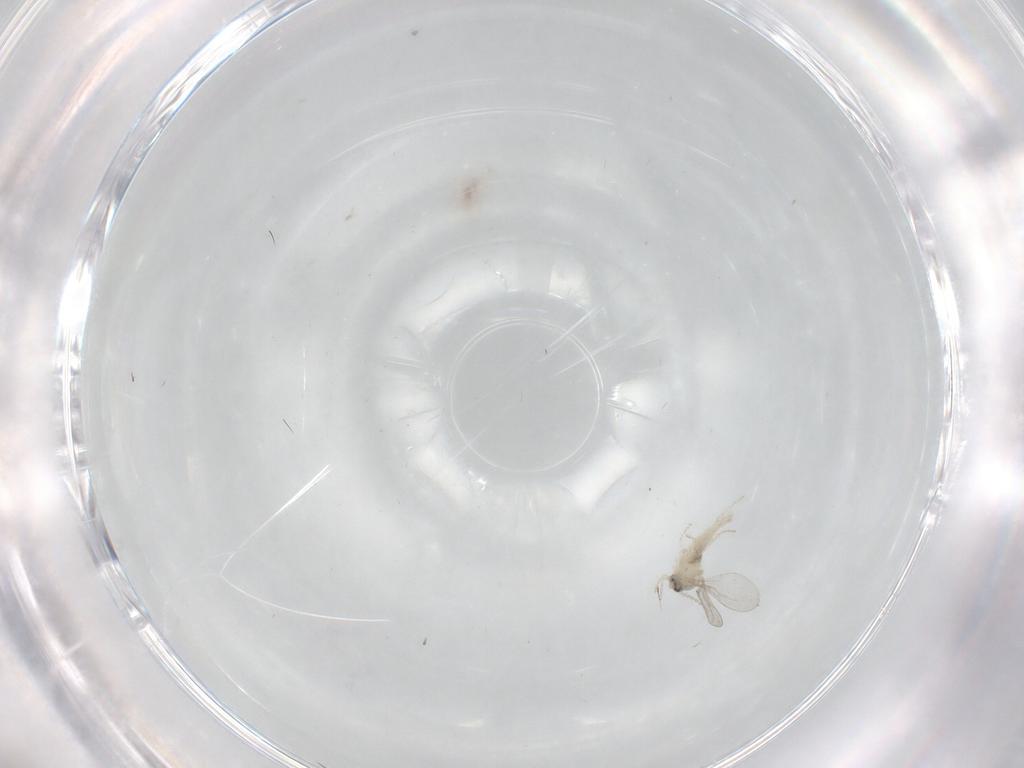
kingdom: Animalia
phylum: Arthropoda
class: Insecta
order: Diptera
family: Cecidomyiidae
